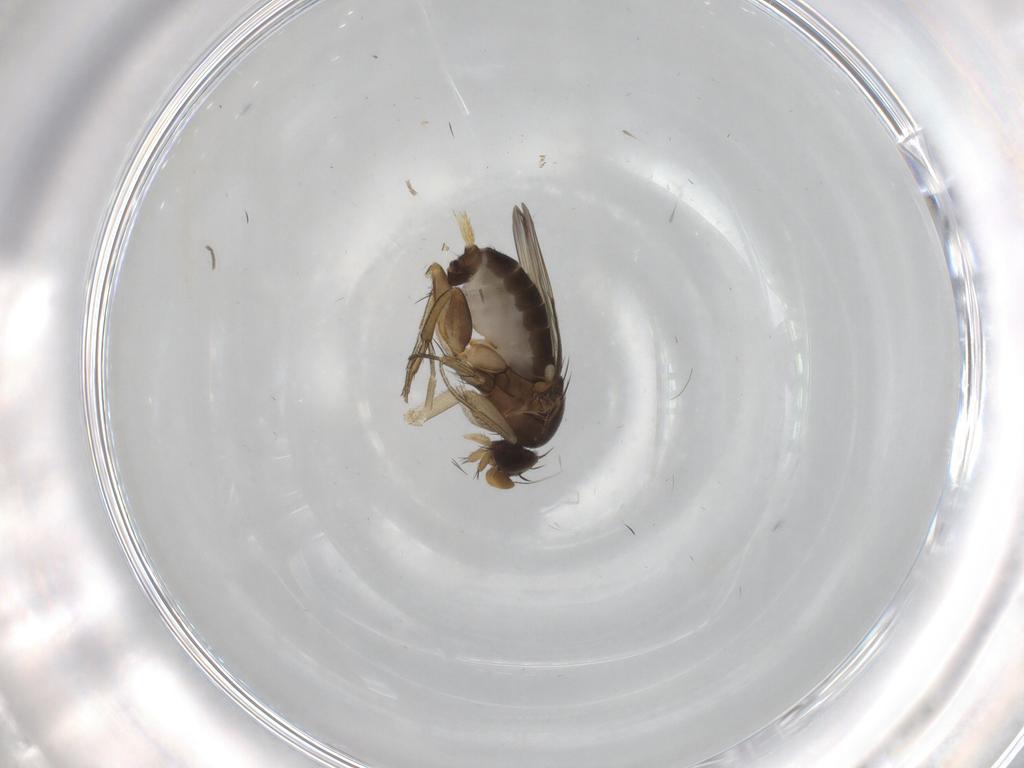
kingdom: Animalia
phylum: Arthropoda
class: Insecta
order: Diptera
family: Phoridae
